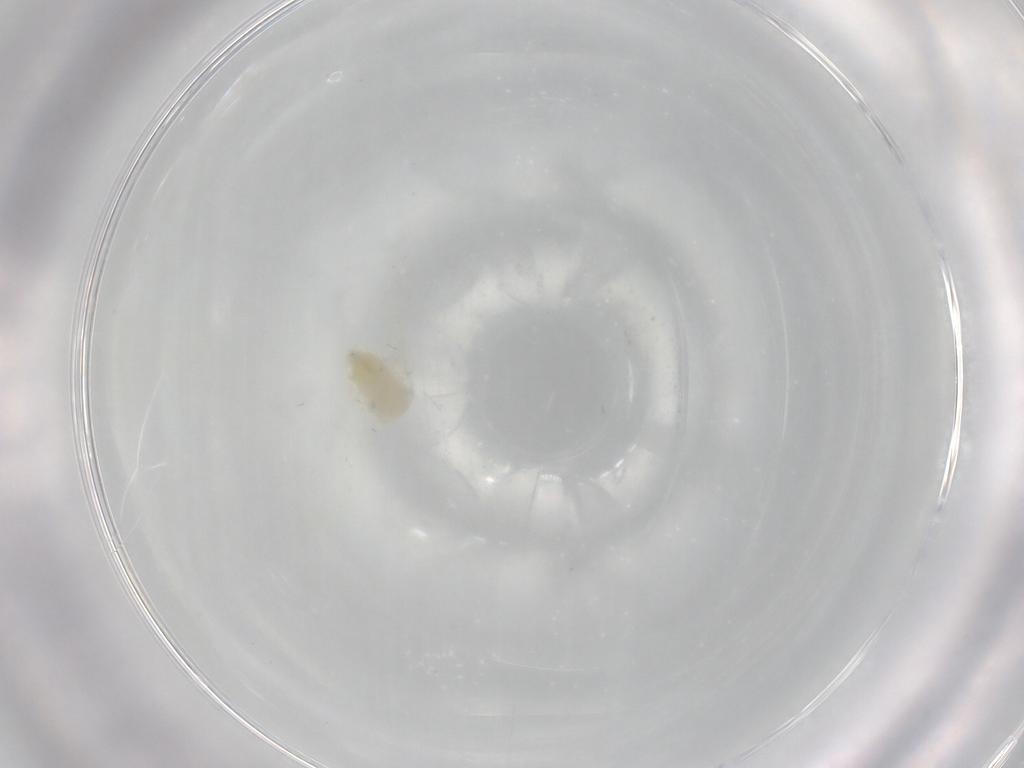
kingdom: Animalia
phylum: Arthropoda
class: Insecta
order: Hemiptera
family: Aleyrodidae
